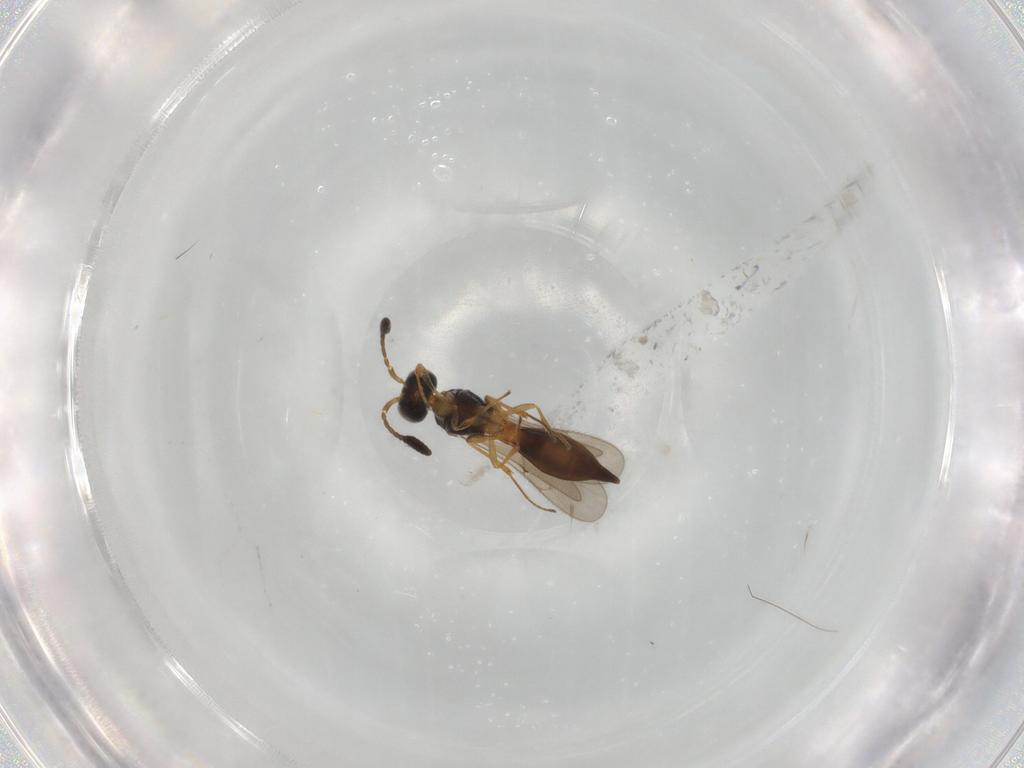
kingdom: Animalia
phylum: Arthropoda
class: Insecta
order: Hymenoptera
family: Scelionidae
